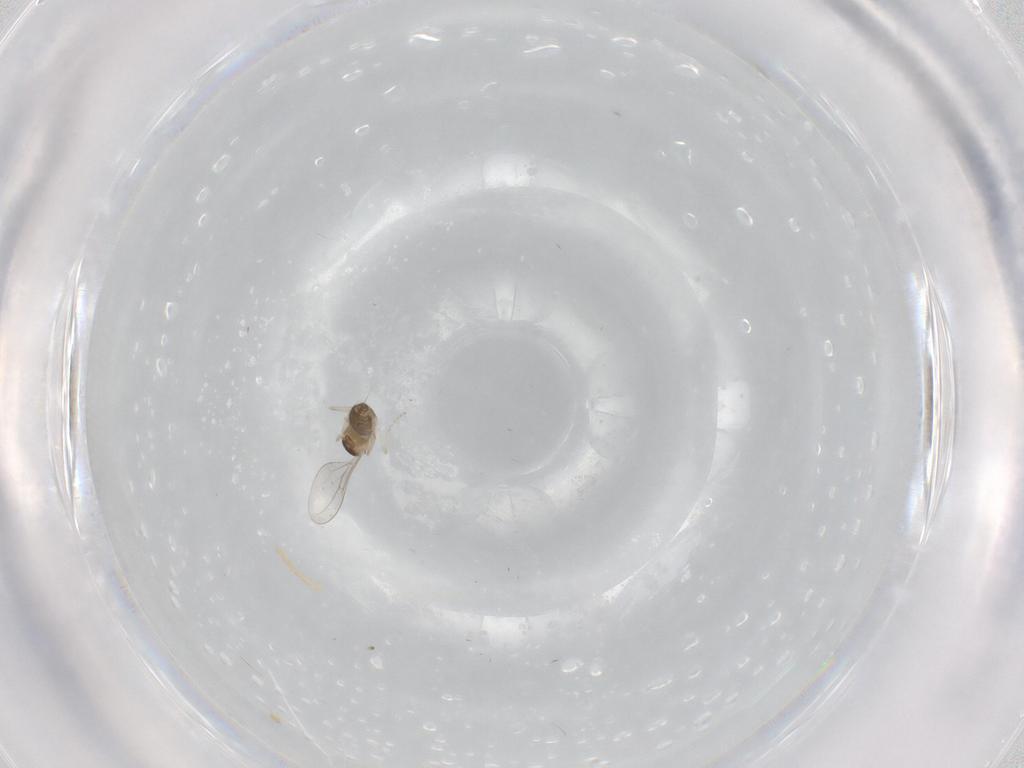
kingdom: Animalia
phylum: Arthropoda
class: Insecta
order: Diptera
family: Cecidomyiidae
